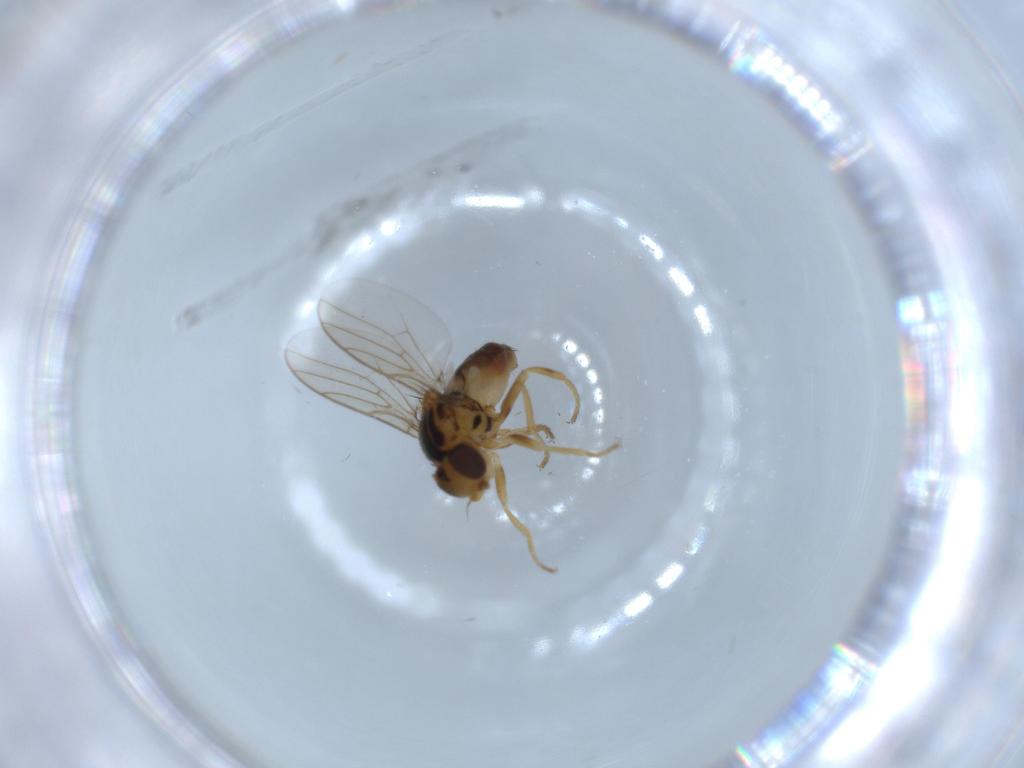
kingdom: Animalia
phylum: Arthropoda
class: Insecta
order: Diptera
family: Chloropidae
